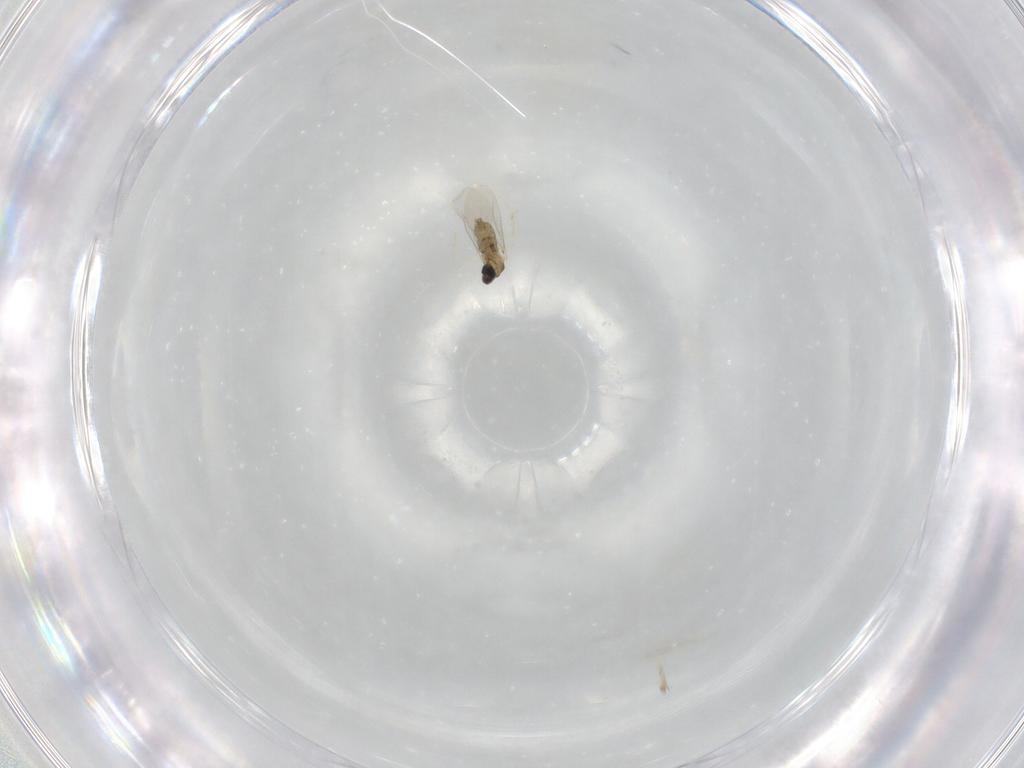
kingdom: Animalia
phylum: Arthropoda
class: Insecta
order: Diptera
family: Cecidomyiidae
